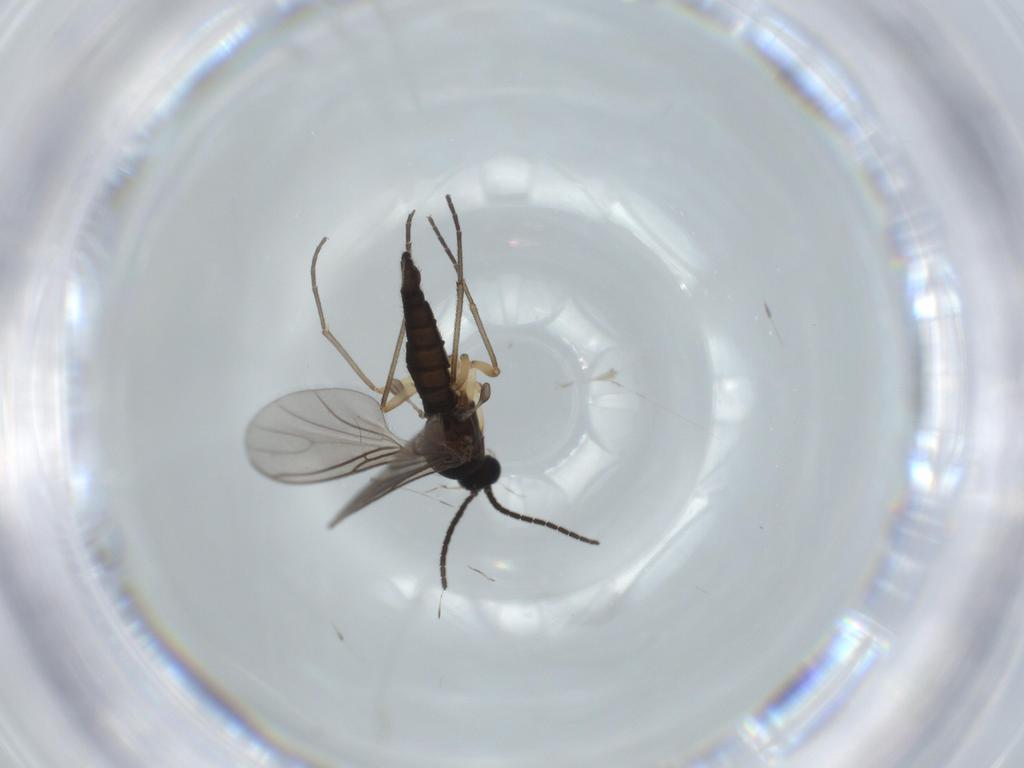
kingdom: Animalia
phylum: Arthropoda
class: Insecta
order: Diptera
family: Sciaridae
